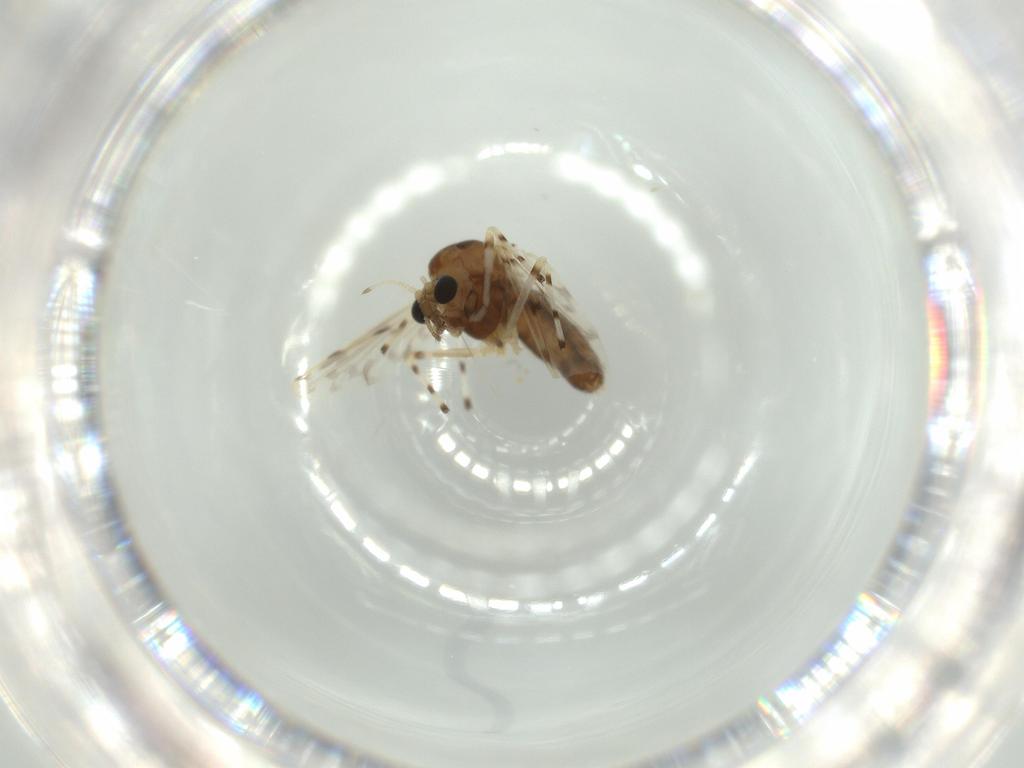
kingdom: Animalia
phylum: Arthropoda
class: Insecta
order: Diptera
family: Chironomidae
